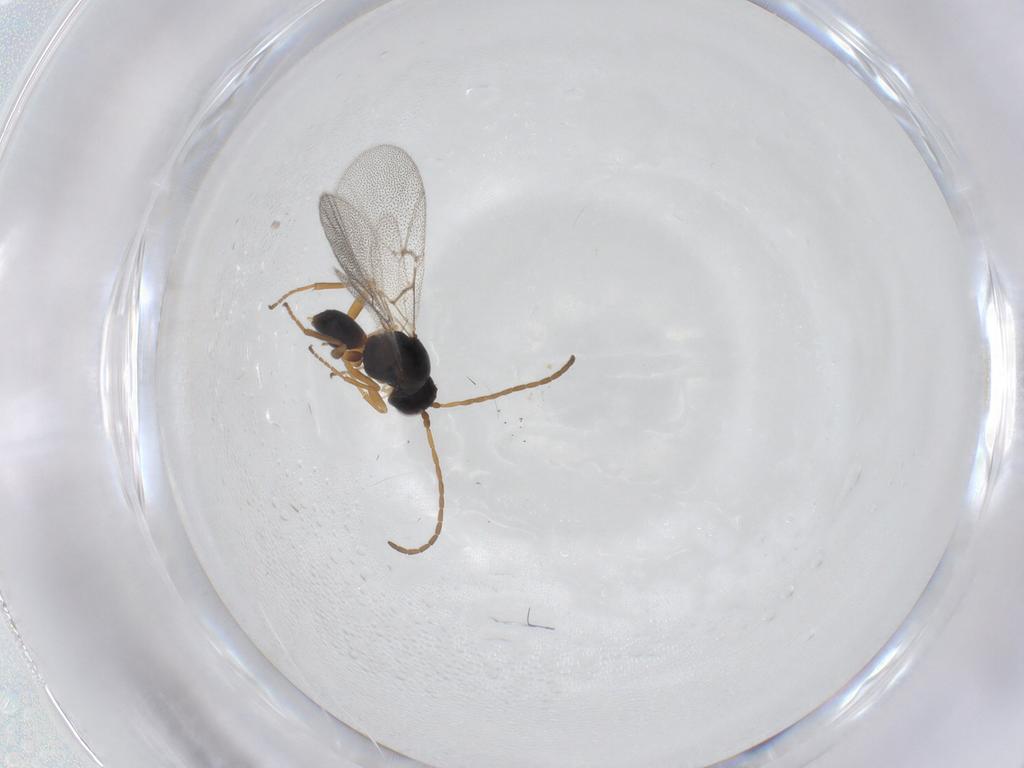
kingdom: Animalia
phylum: Arthropoda
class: Insecta
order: Hymenoptera
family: Cynipidae
